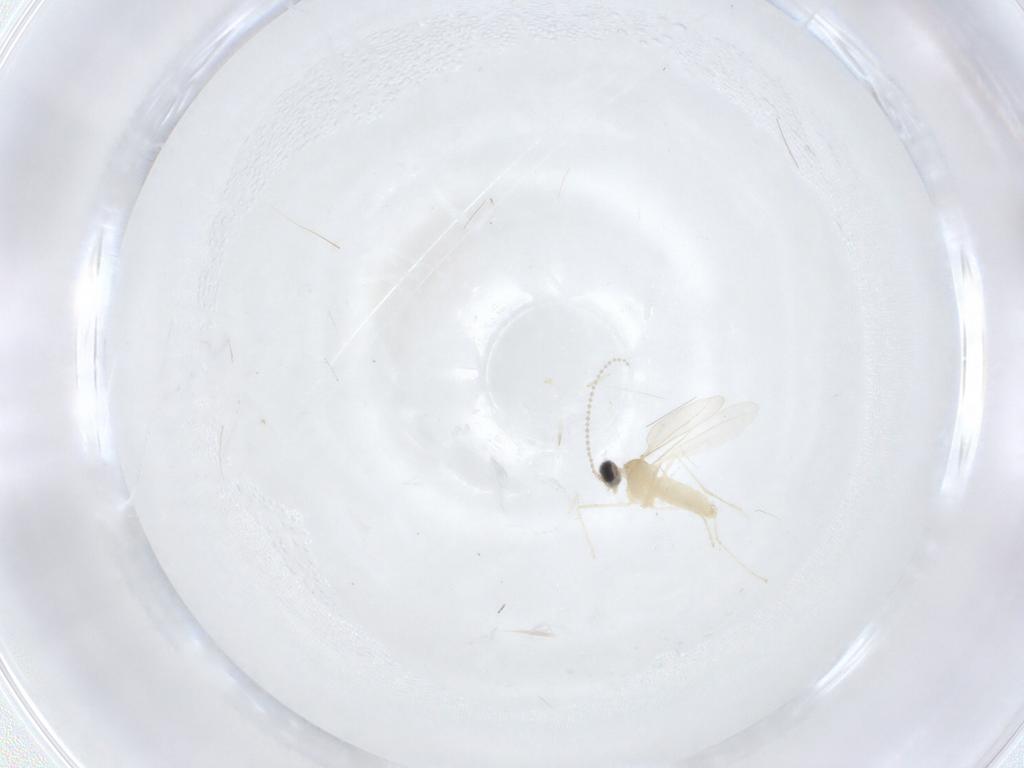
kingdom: Animalia
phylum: Arthropoda
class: Insecta
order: Diptera
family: Cecidomyiidae
